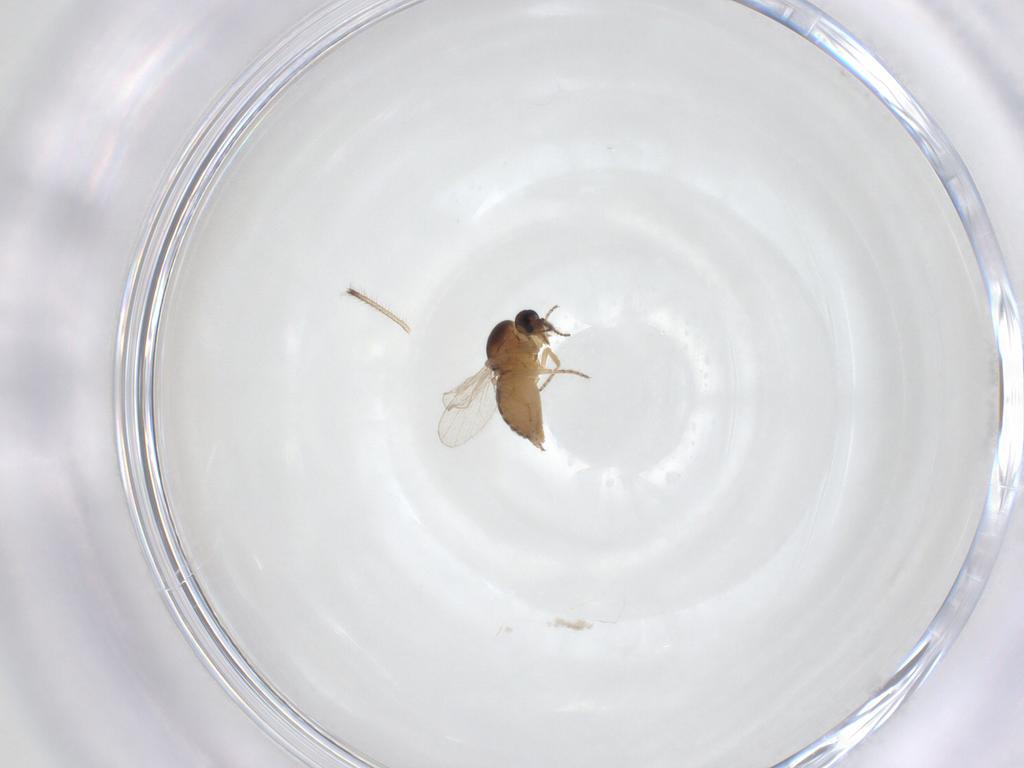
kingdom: Animalia
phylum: Arthropoda
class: Insecta
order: Diptera
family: Ceratopogonidae
